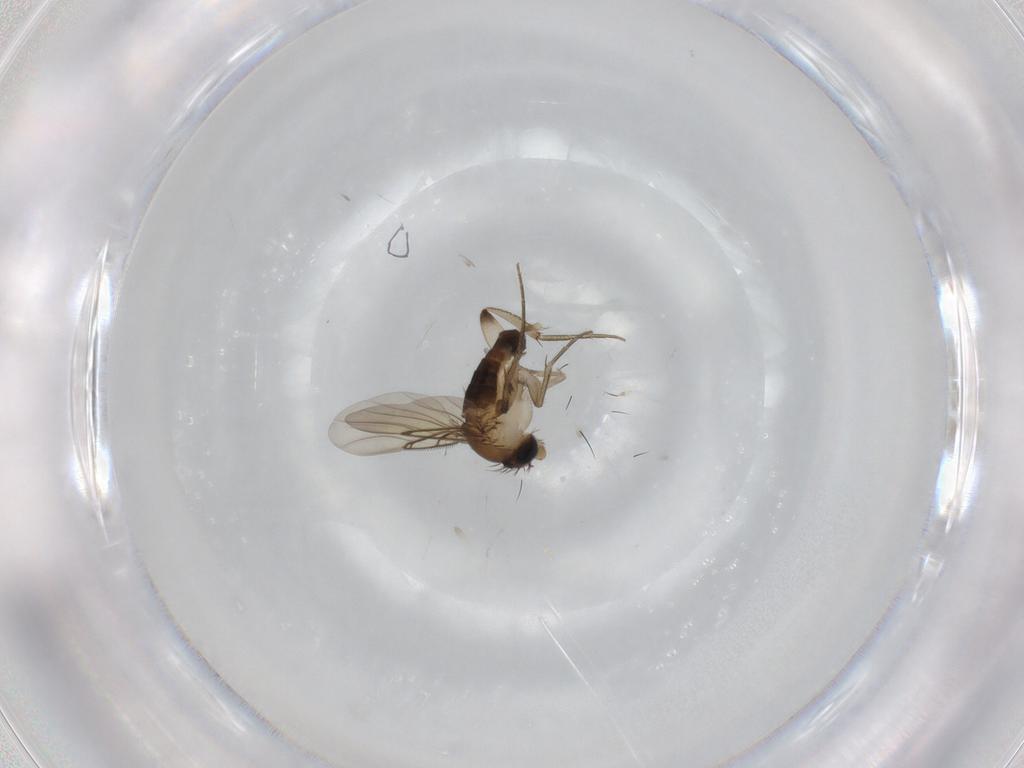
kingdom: Animalia
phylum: Arthropoda
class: Insecta
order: Diptera
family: Phoridae
